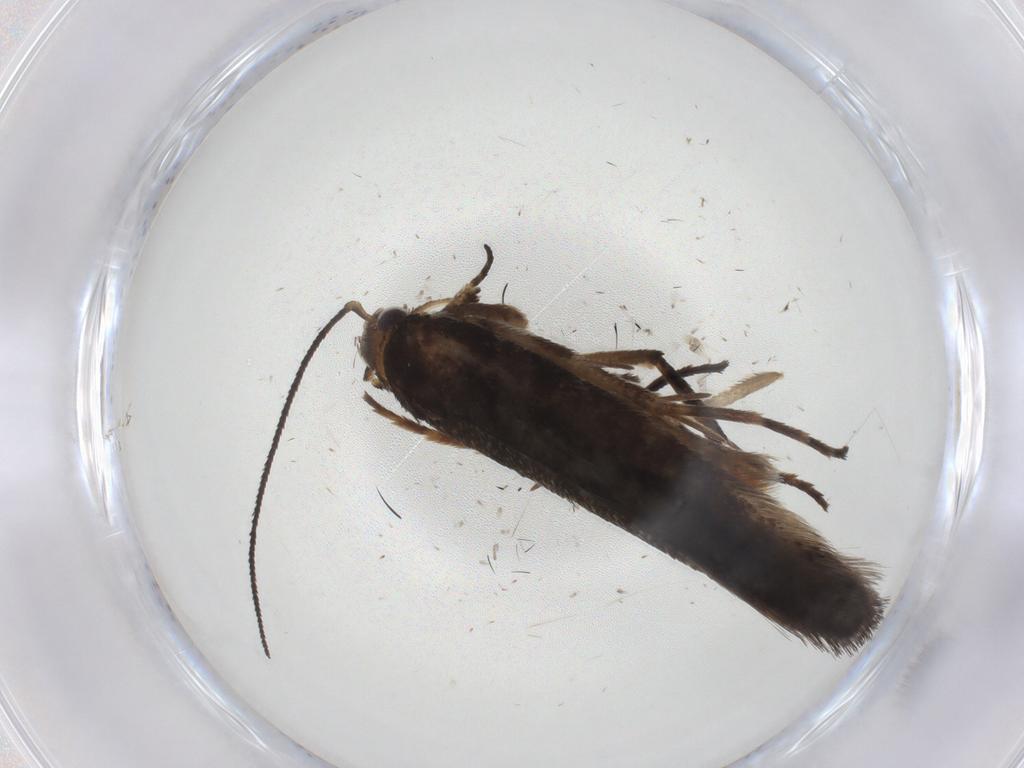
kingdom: Animalia
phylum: Arthropoda
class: Insecta
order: Lepidoptera
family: Gelechiidae
